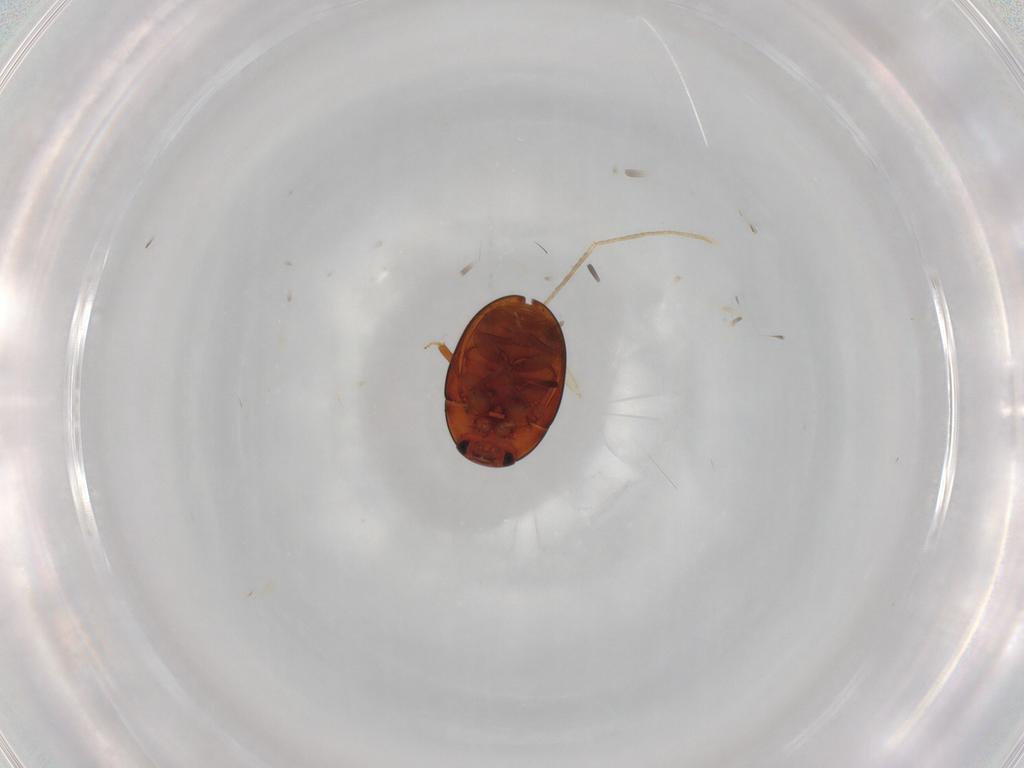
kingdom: Animalia
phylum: Arthropoda
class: Insecta
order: Coleoptera
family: Phalacridae
